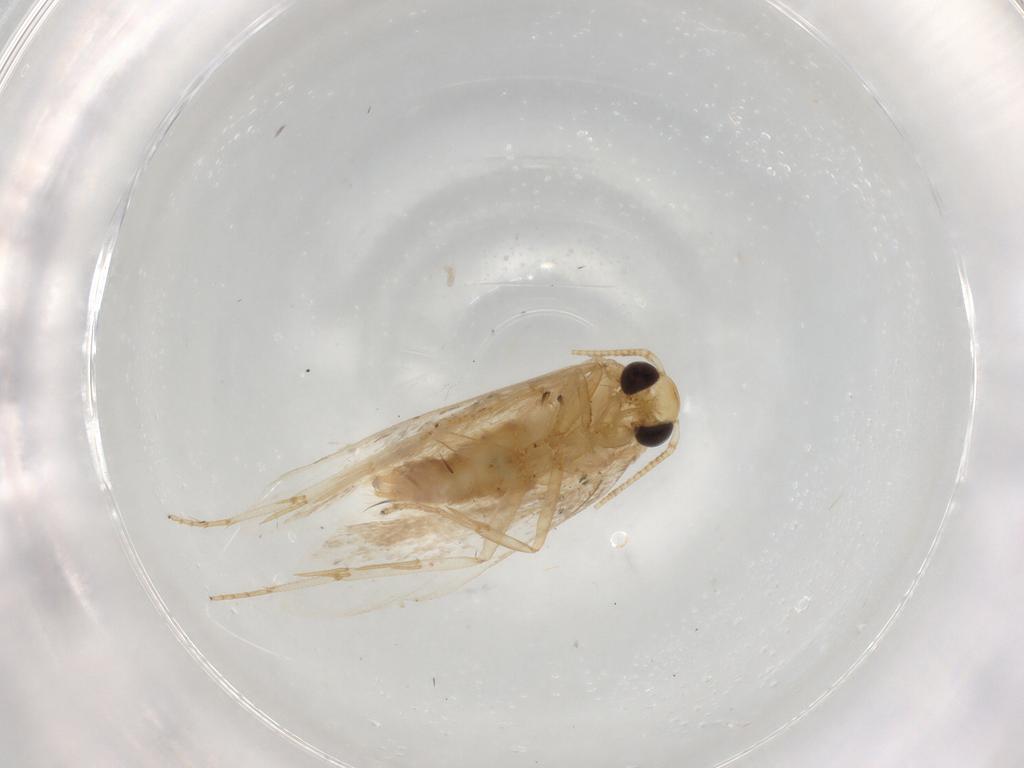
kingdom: Animalia
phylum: Arthropoda
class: Insecta
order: Lepidoptera
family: Depressariidae
